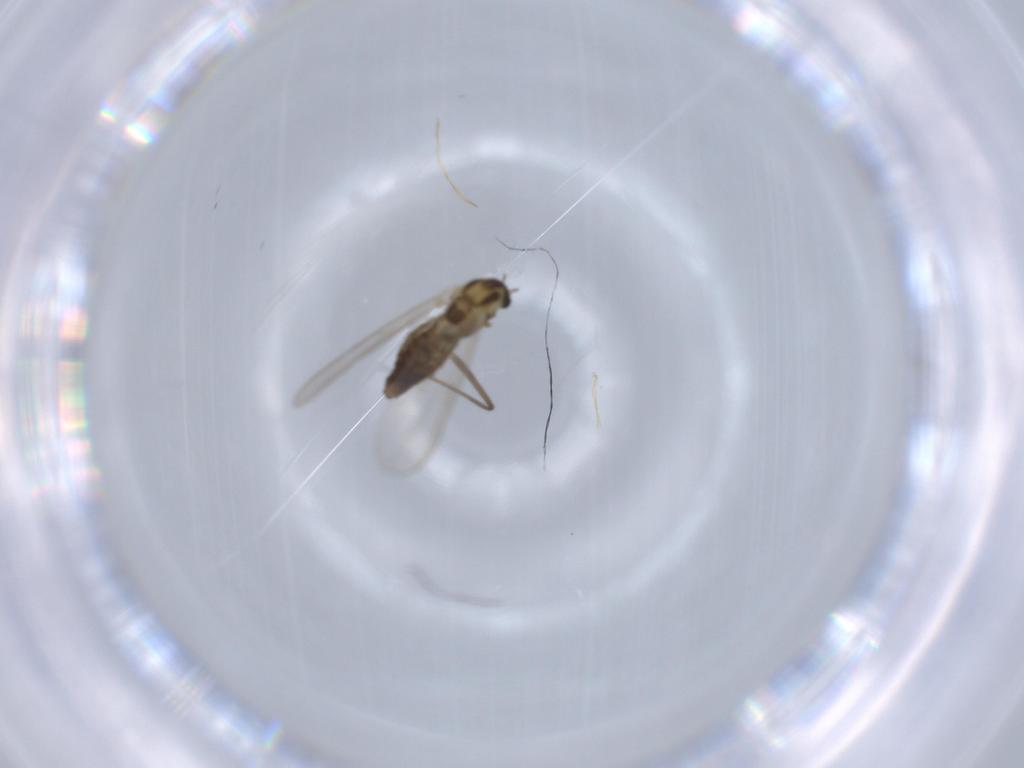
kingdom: Animalia
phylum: Arthropoda
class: Insecta
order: Diptera
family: Chironomidae
